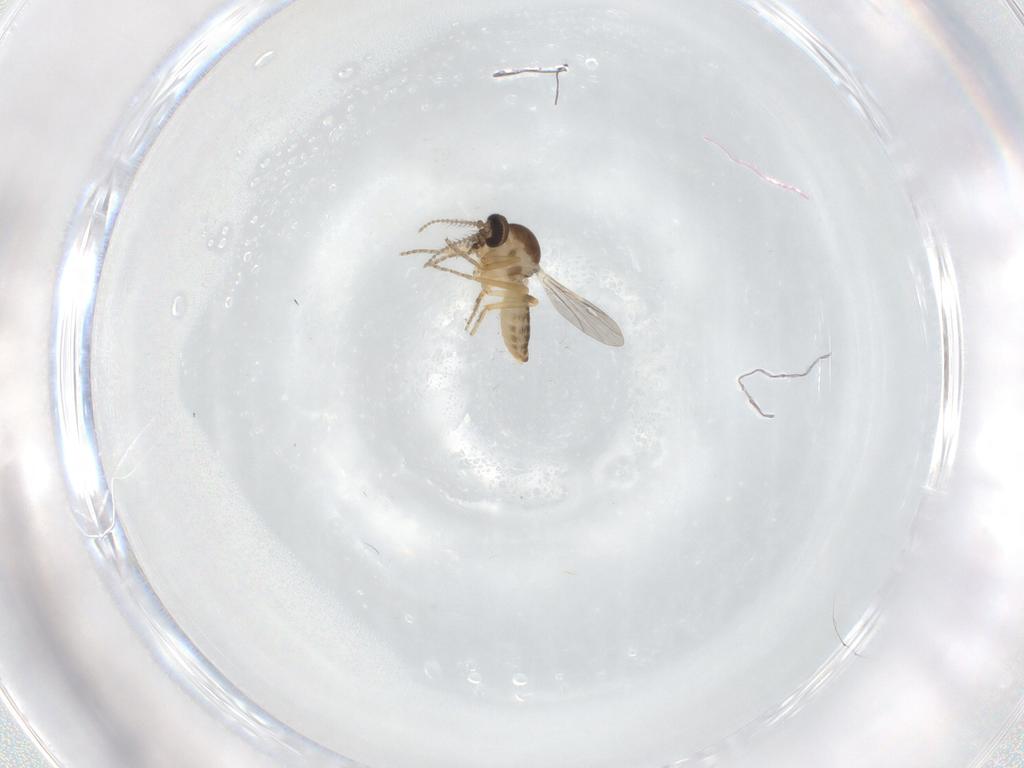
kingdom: Animalia
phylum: Arthropoda
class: Insecta
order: Diptera
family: Ceratopogonidae
